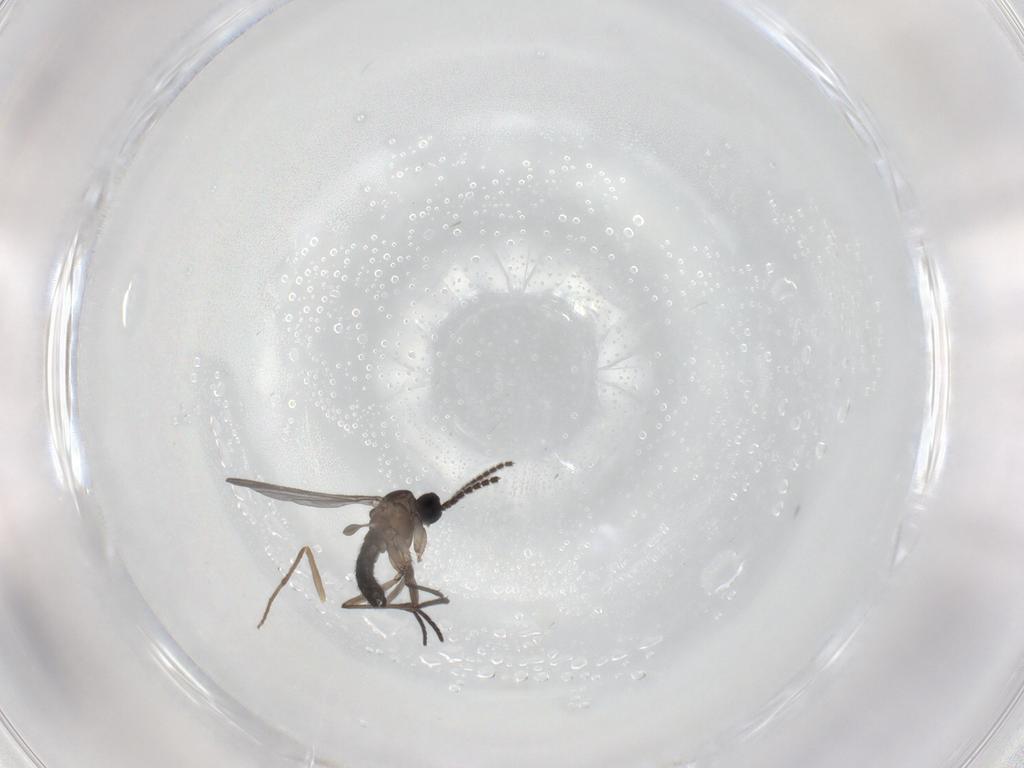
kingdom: Animalia
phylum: Arthropoda
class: Insecta
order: Diptera
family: Chironomidae
